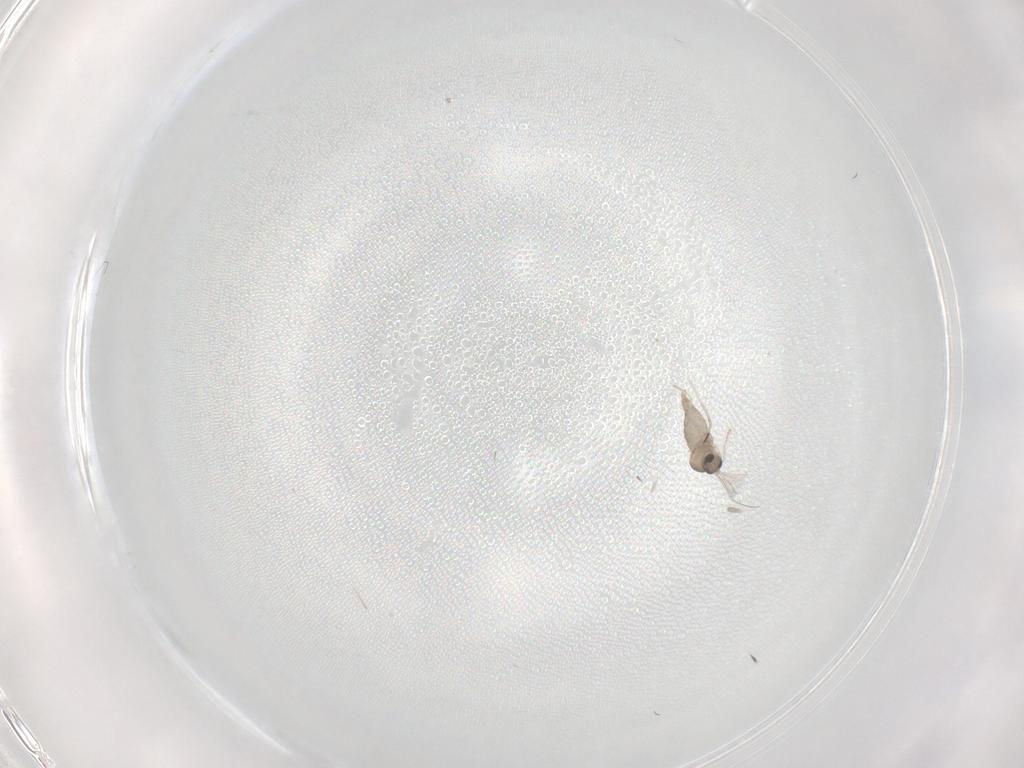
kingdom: Animalia
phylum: Arthropoda
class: Insecta
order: Diptera
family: Cecidomyiidae
